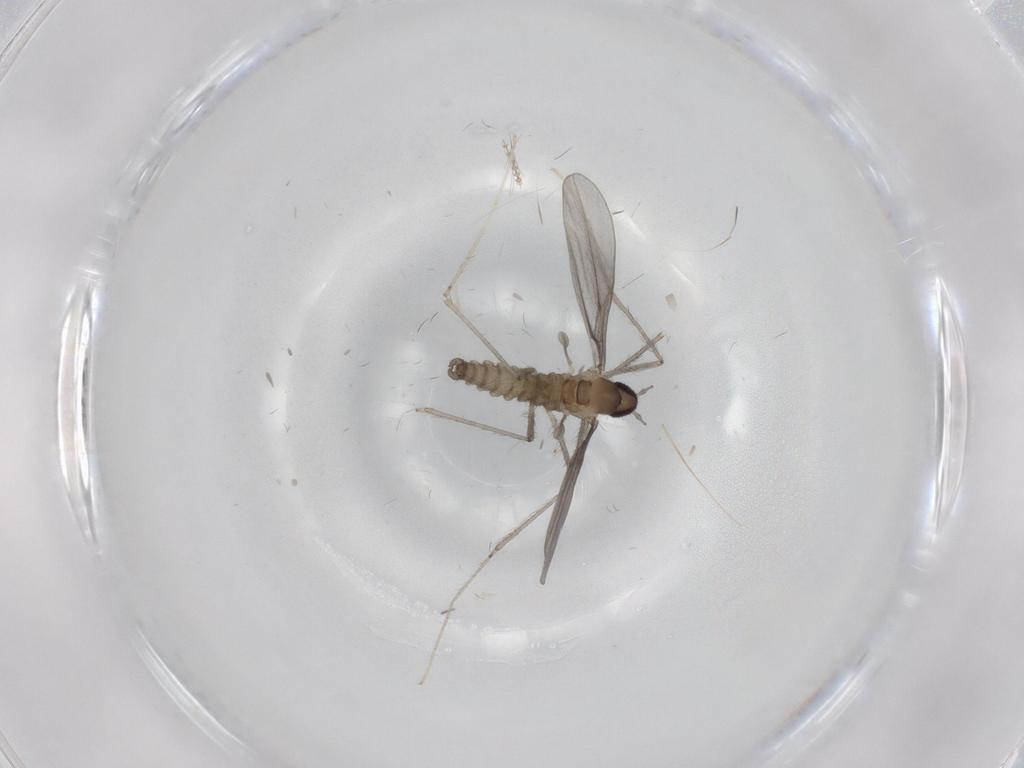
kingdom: Animalia
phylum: Arthropoda
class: Insecta
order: Diptera
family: Cecidomyiidae
